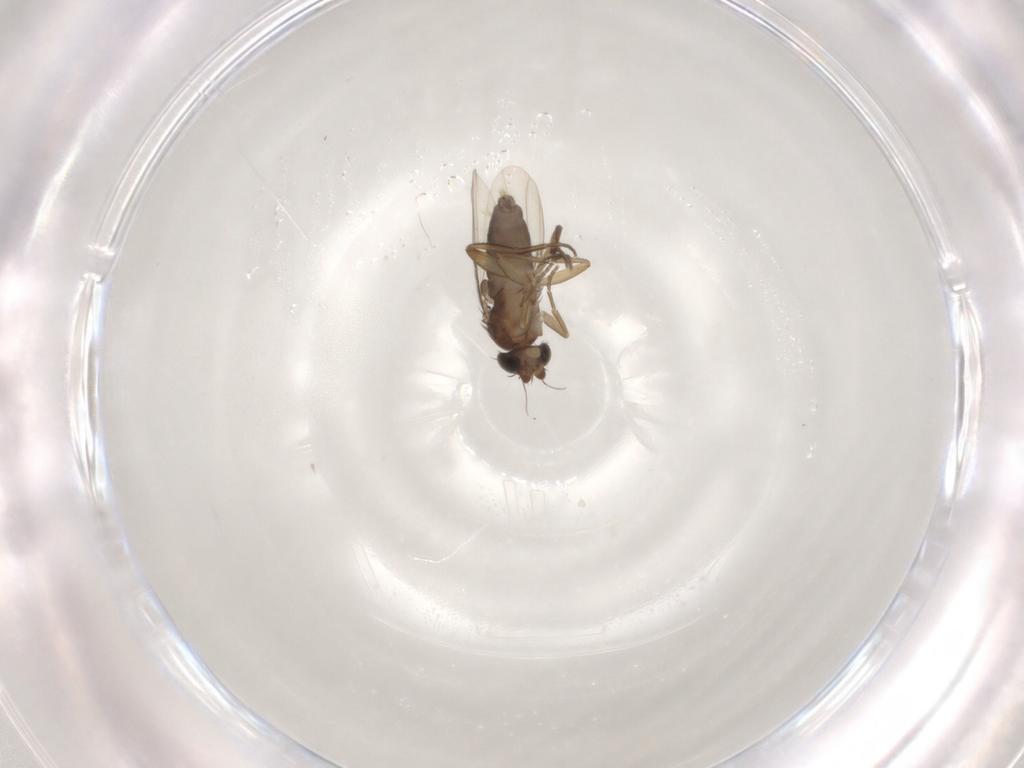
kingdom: Animalia
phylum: Arthropoda
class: Insecta
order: Diptera
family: Phoridae
